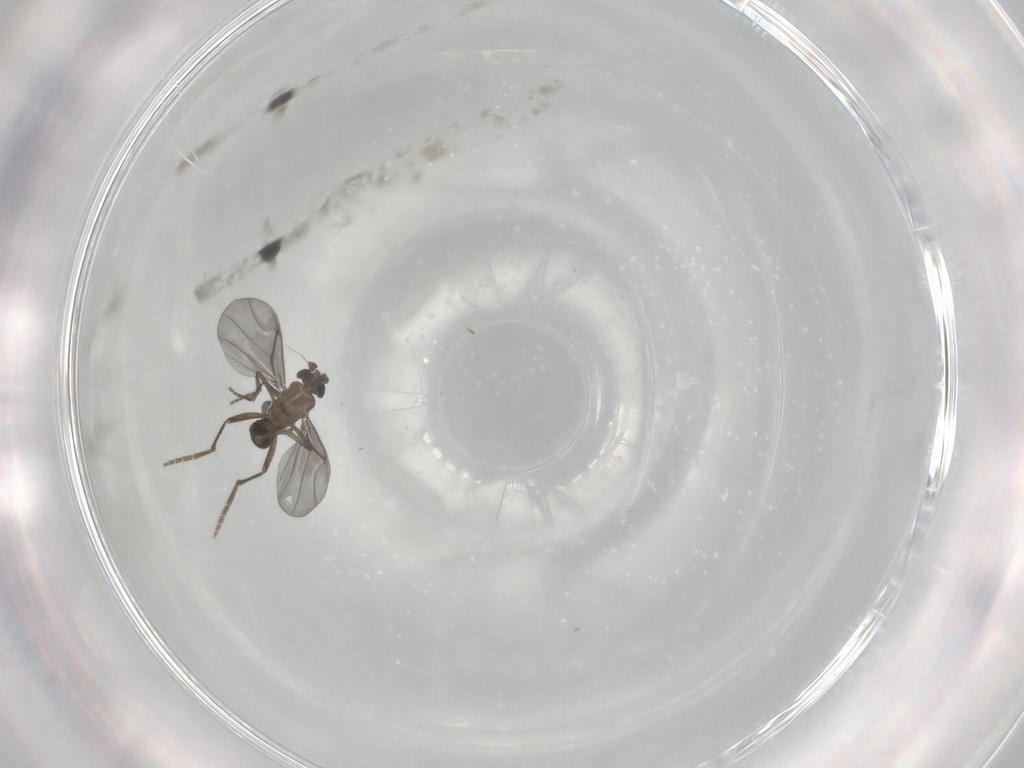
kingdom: Animalia
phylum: Arthropoda
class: Insecta
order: Diptera
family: Phoridae
